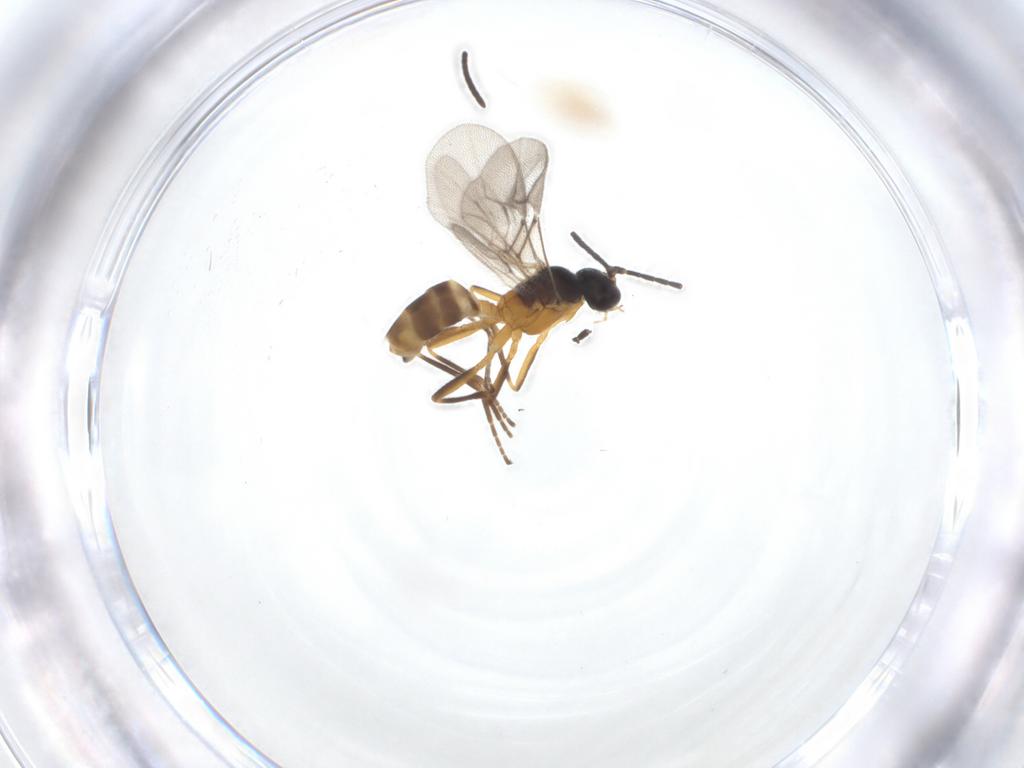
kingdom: Animalia
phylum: Arthropoda
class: Insecta
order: Hymenoptera
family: Braconidae
